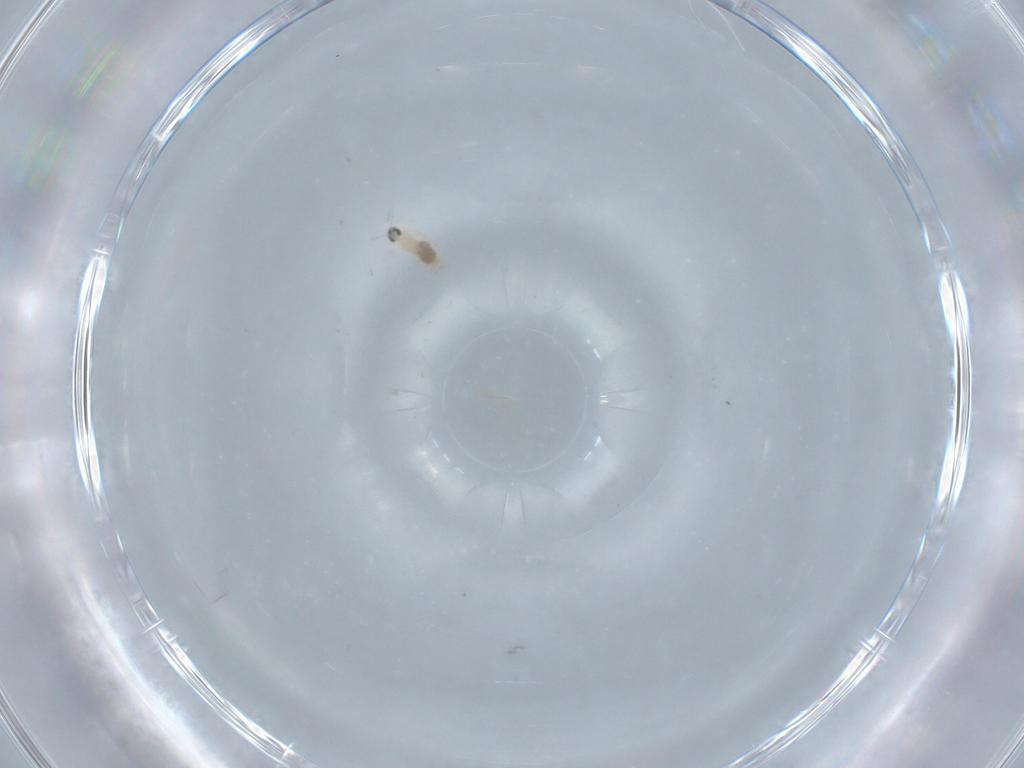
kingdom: Animalia
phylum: Arthropoda
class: Insecta
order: Diptera
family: Cecidomyiidae
